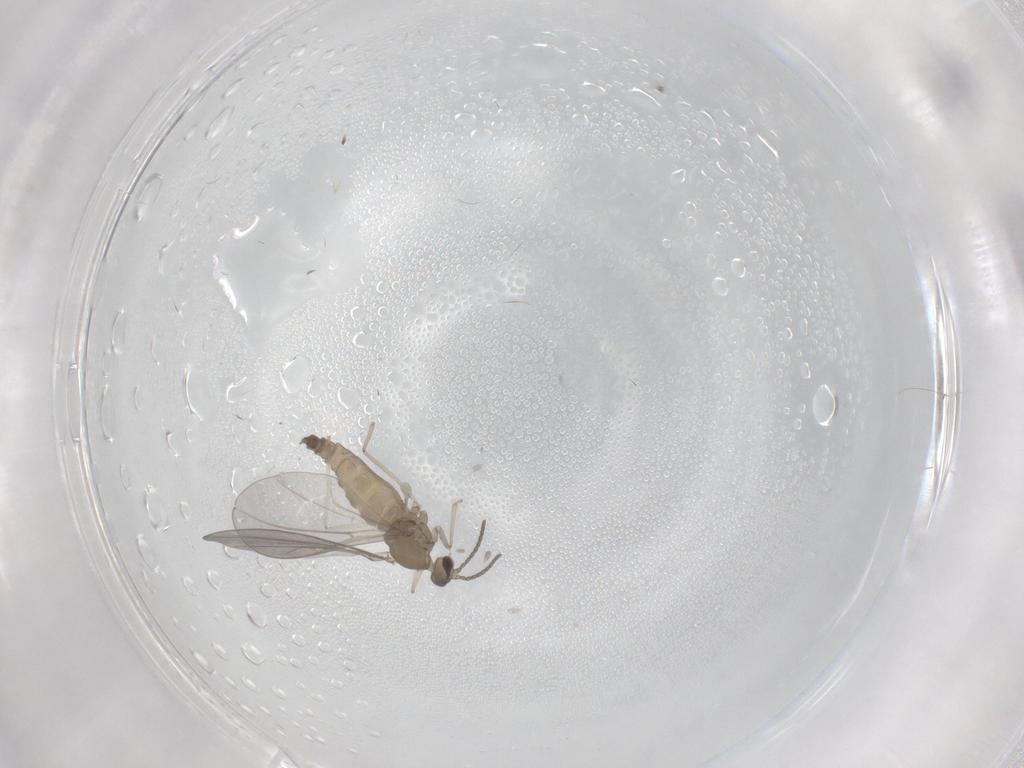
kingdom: Animalia
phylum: Arthropoda
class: Insecta
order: Diptera
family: Cecidomyiidae
